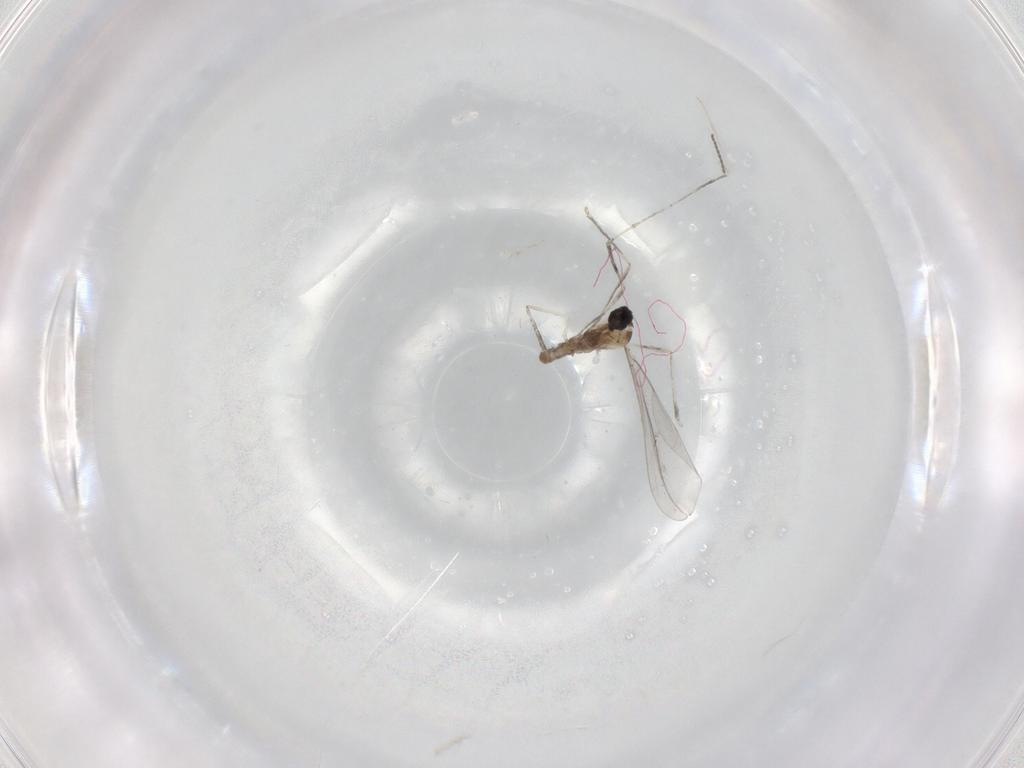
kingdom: Animalia
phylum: Arthropoda
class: Insecta
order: Diptera
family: Cecidomyiidae
